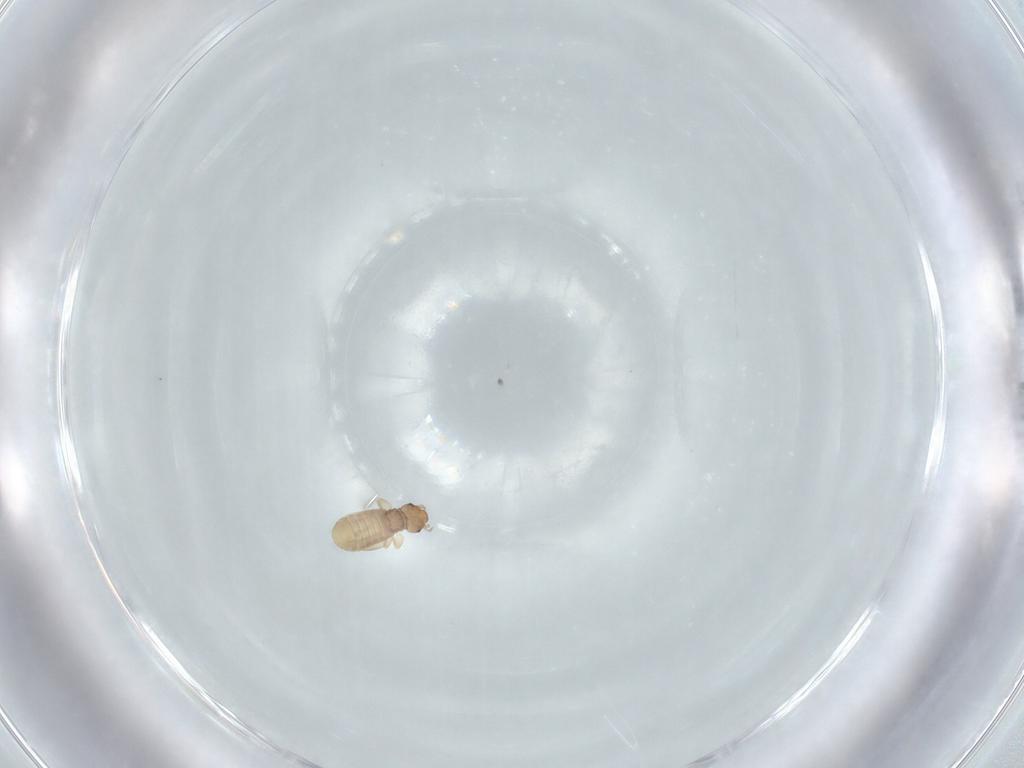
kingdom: Animalia
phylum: Arthropoda
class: Insecta
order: Psocodea
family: Liposcelididae
